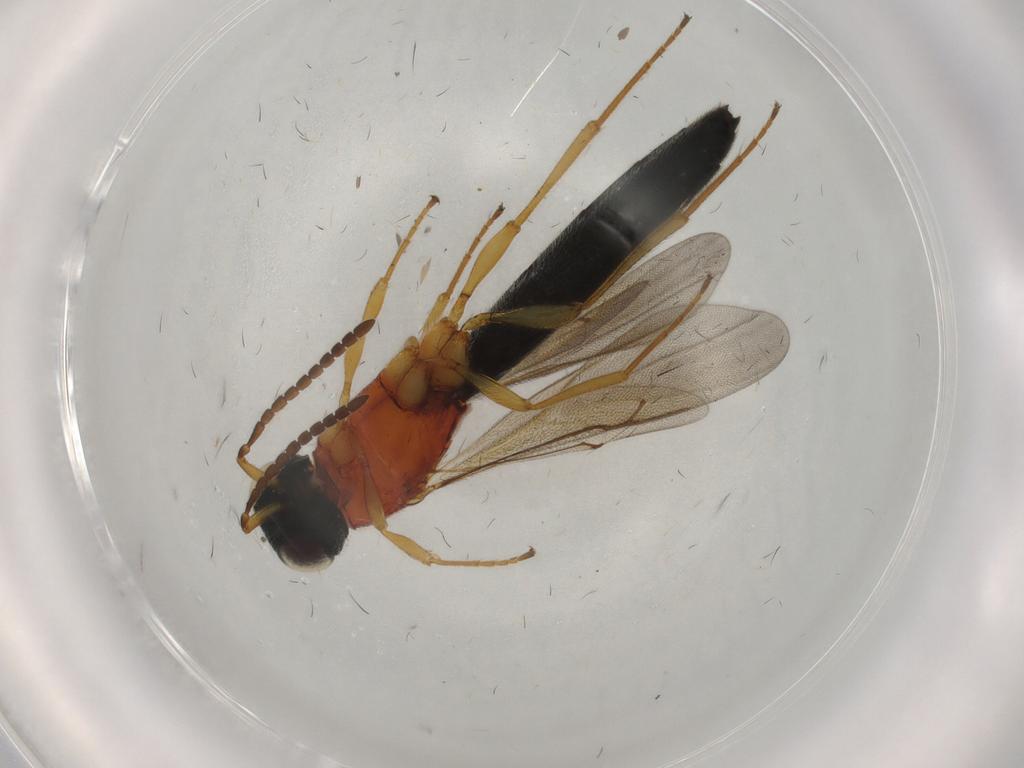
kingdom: Animalia
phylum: Arthropoda
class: Insecta
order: Hymenoptera
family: Scelionidae
